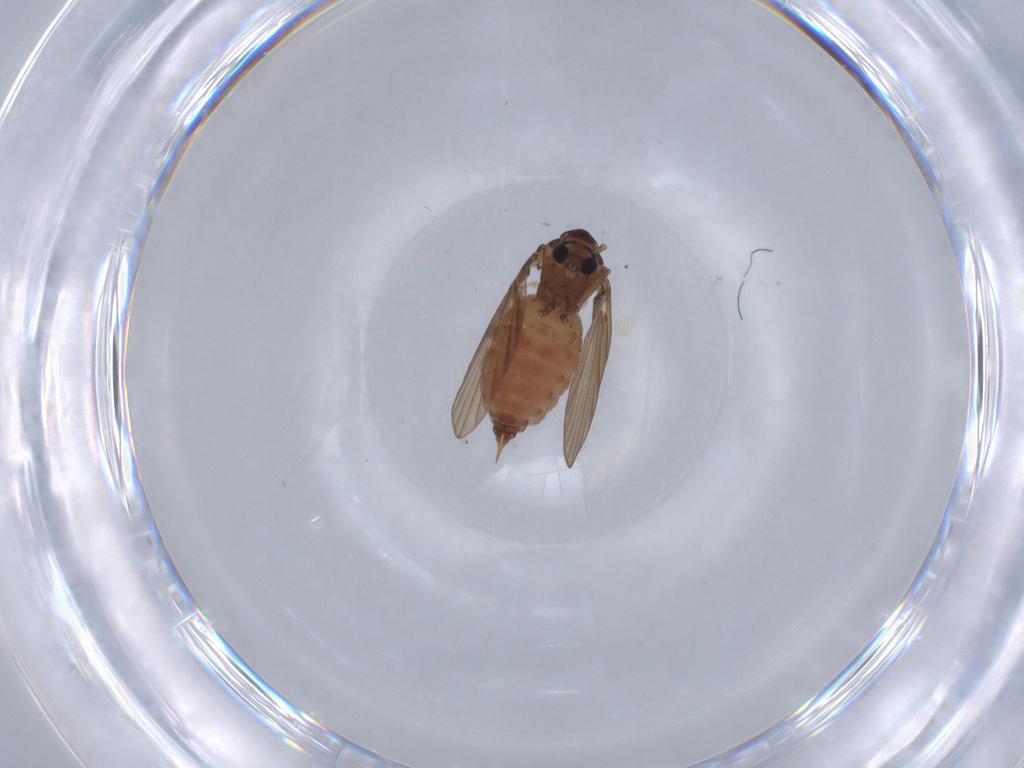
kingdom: Animalia
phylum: Arthropoda
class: Insecta
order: Diptera
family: Psychodidae
